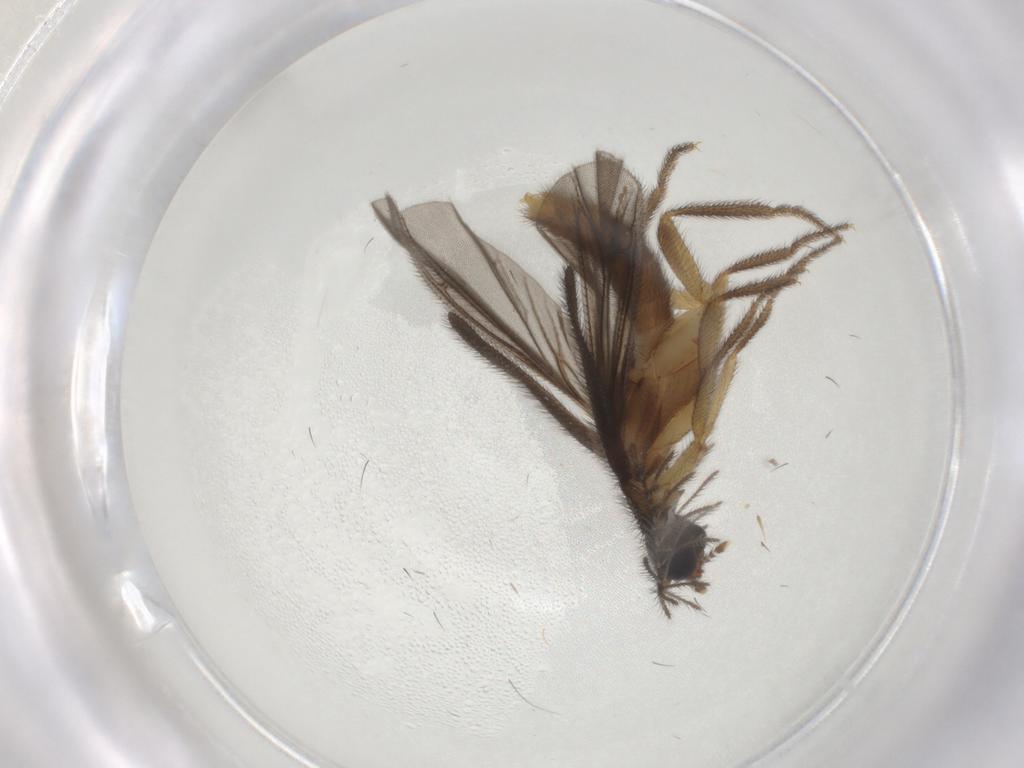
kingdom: Animalia
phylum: Arthropoda
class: Insecta
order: Coleoptera
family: Phengodidae
